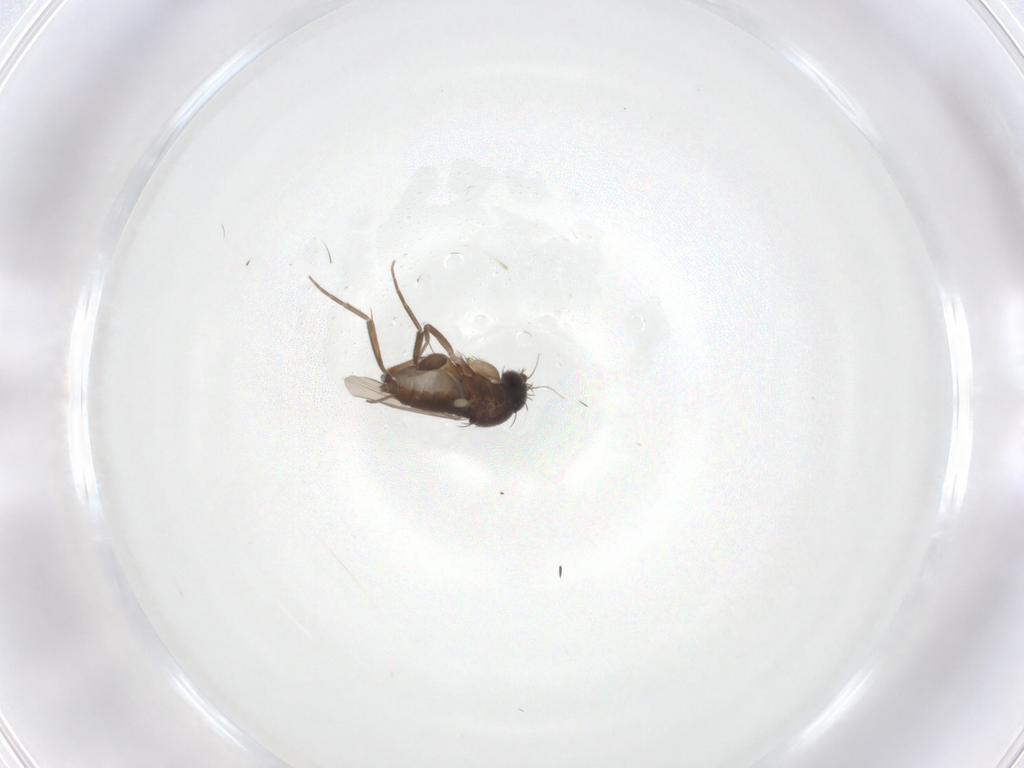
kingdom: Animalia
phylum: Arthropoda
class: Insecta
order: Diptera
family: Phoridae
